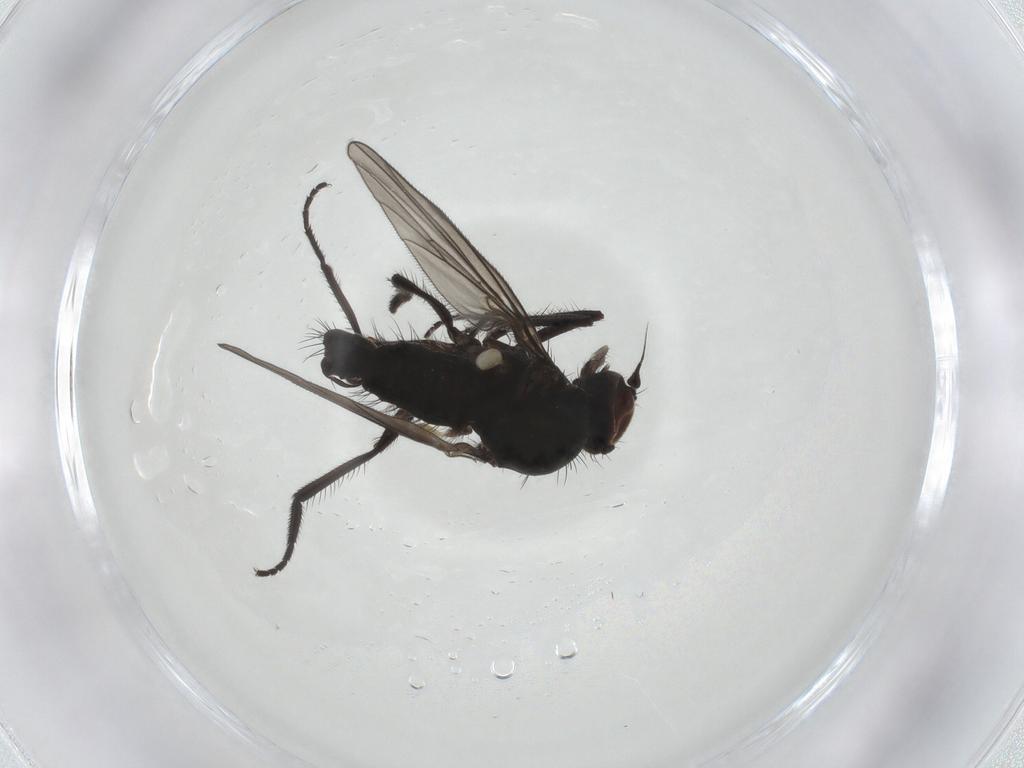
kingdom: Animalia
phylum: Arthropoda
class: Insecta
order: Diptera
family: Dolichopodidae
